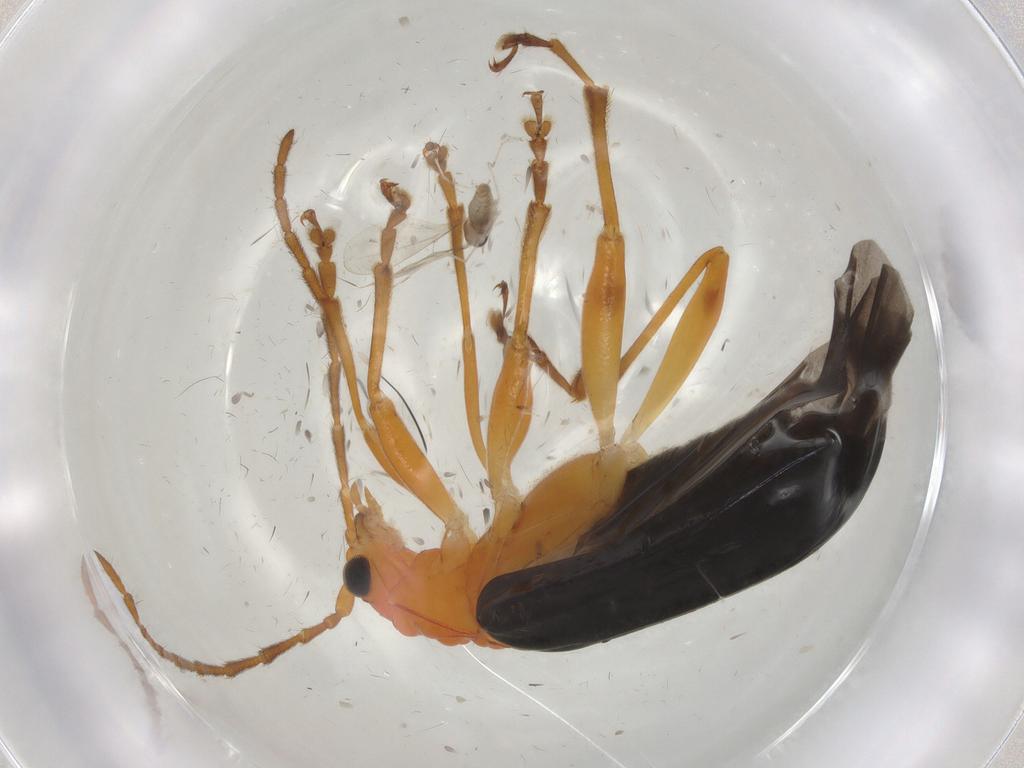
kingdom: Animalia
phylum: Arthropoda
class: Insecta
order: Coleoptera
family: Chrysomelidae
